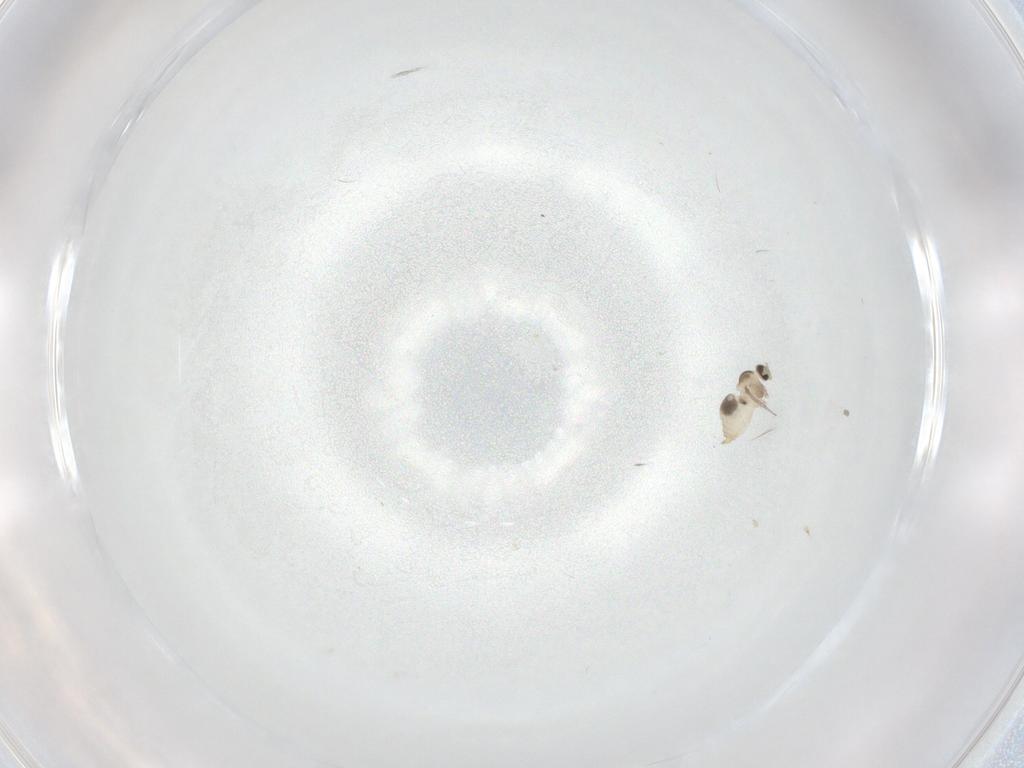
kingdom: Animalia
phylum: Arthropoda
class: Insecta
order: Diptera
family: Cecidomyiidae
